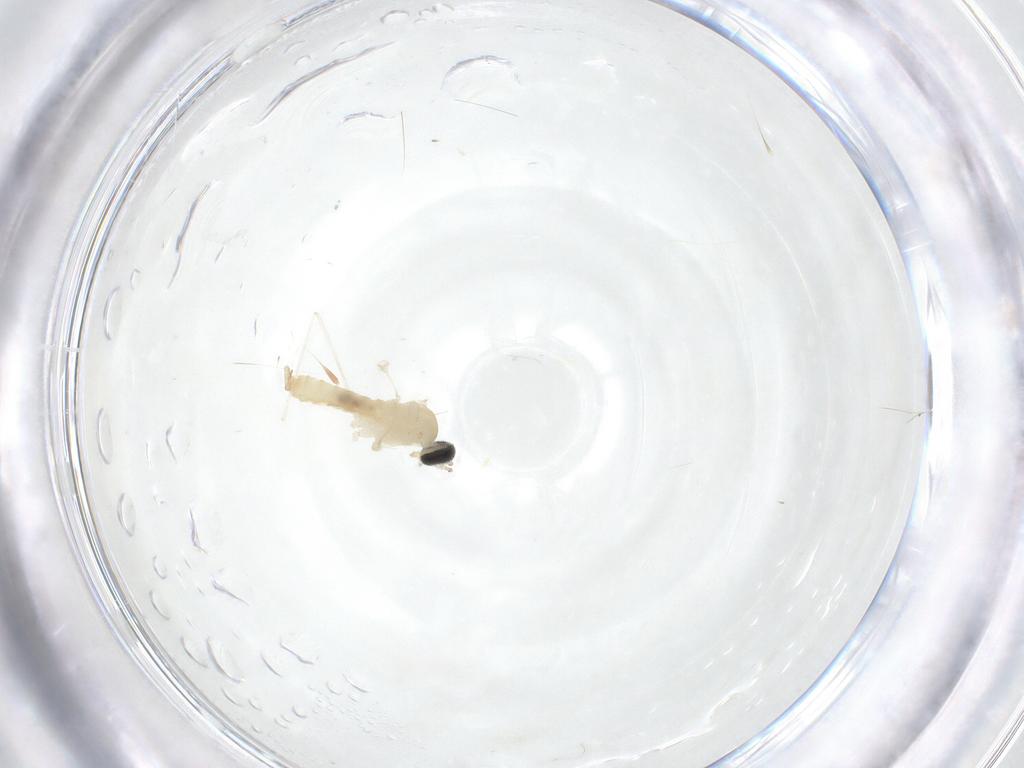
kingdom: Animalia
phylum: Arthropoda
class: Insecta
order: Diptera
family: Cecidomyiidae
